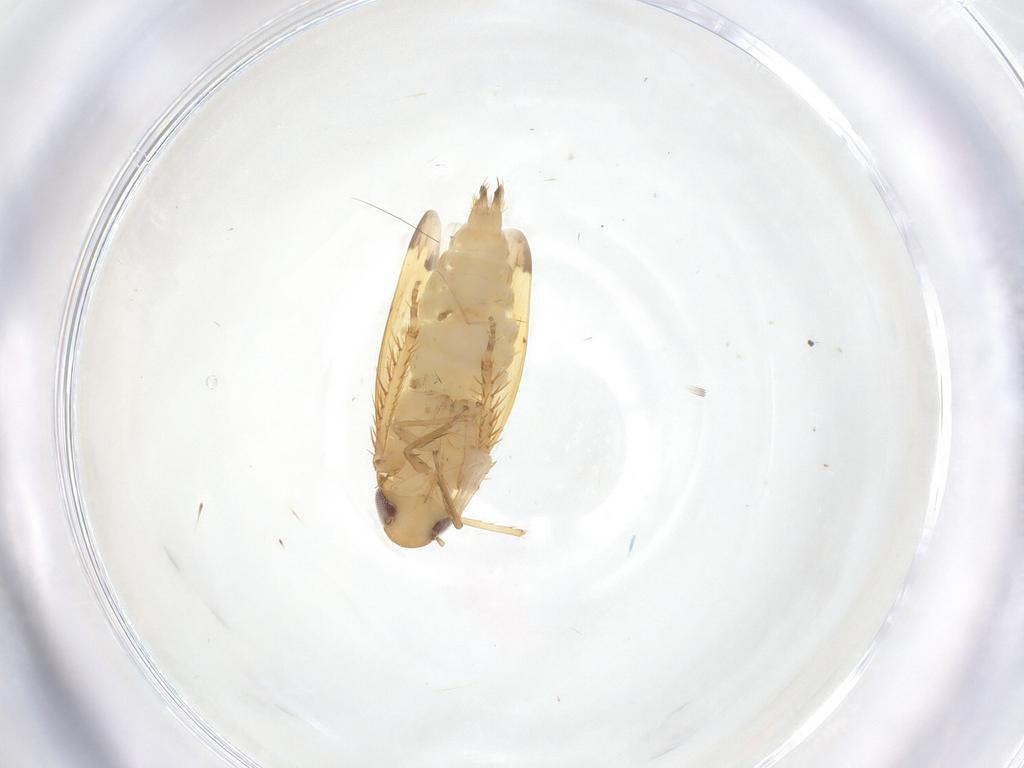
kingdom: Animalia
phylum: Arthropoda
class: Insecta
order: Hemiptera
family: Cicadellidae
